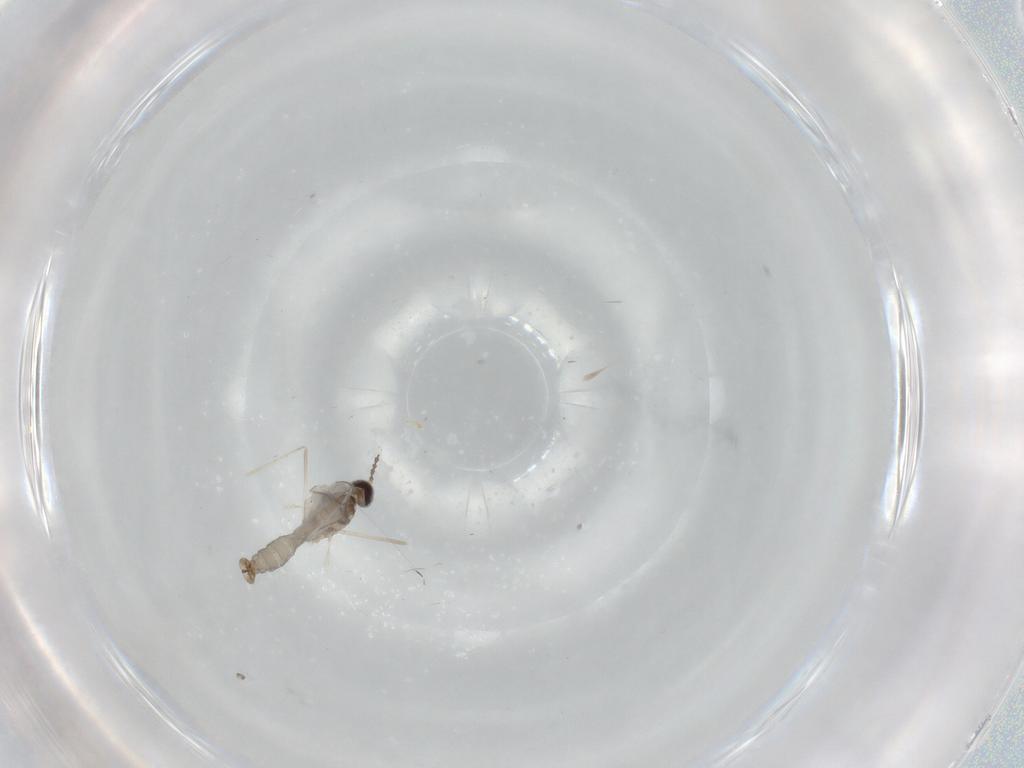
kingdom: Animalia
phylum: Arthropoda
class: Insecta
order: Diptera
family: Cecidomyiidae
